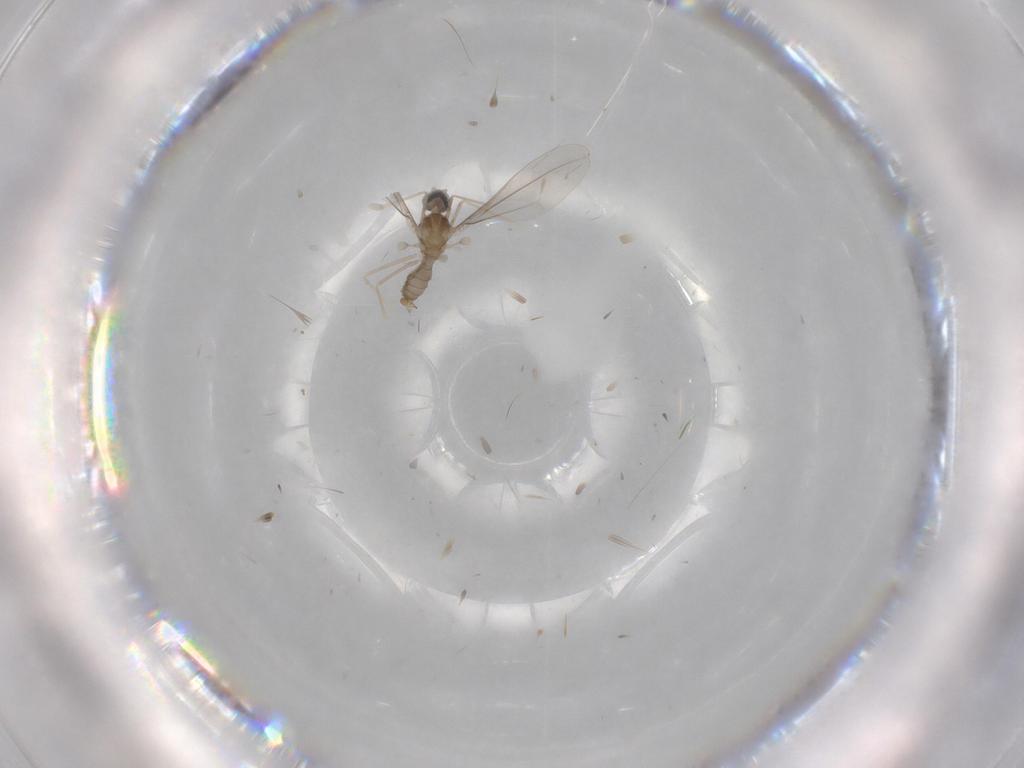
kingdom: Animalia
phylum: Arthropoda
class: Insecta
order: Diptera
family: Cecidomyiidae
